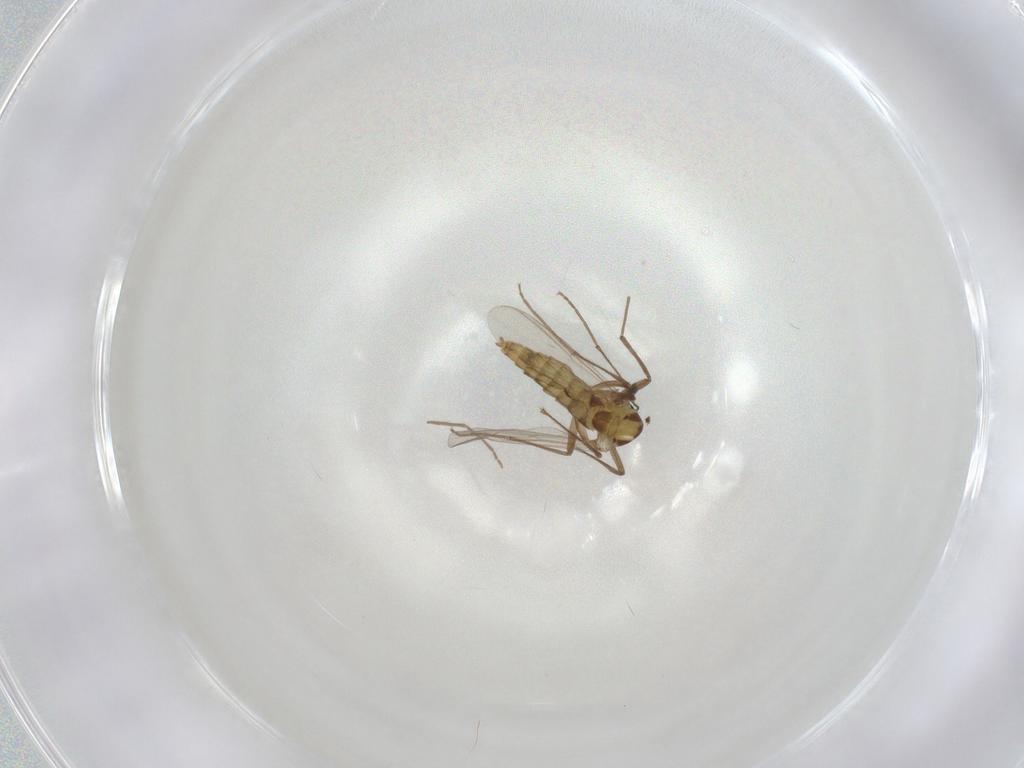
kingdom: Animalia
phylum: Arthropoda
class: Insecta
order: Diptera
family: Chironomidae
